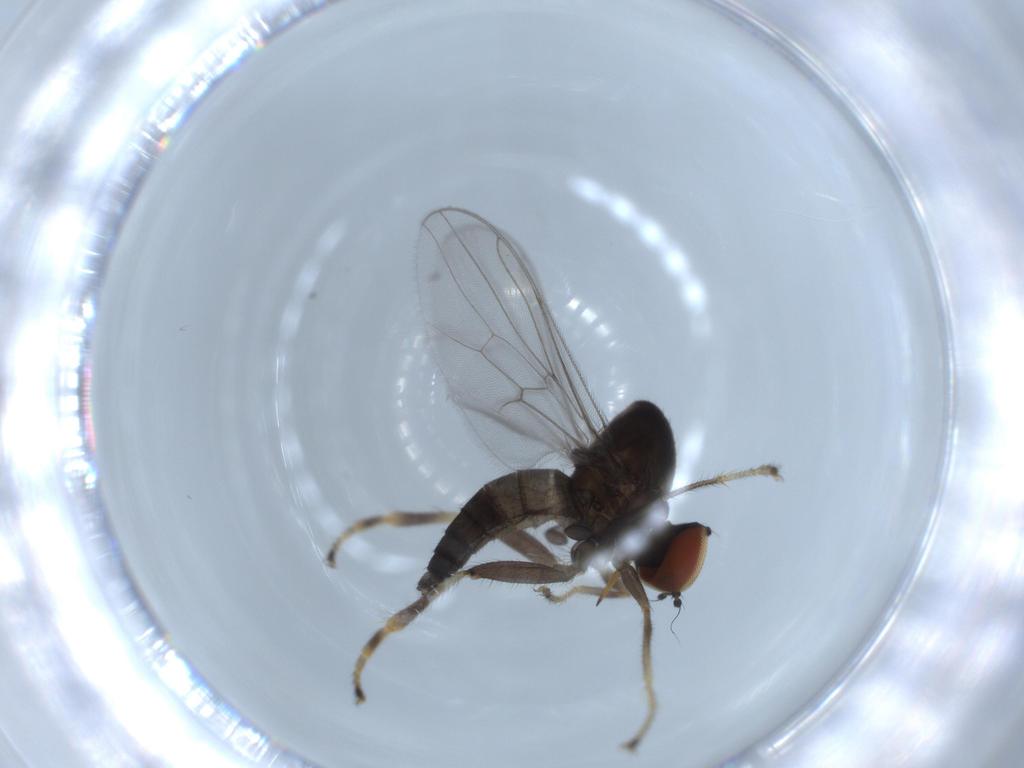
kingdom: Animalia
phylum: Arthropoda
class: Insecta
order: Diptera
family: Hybotidae
